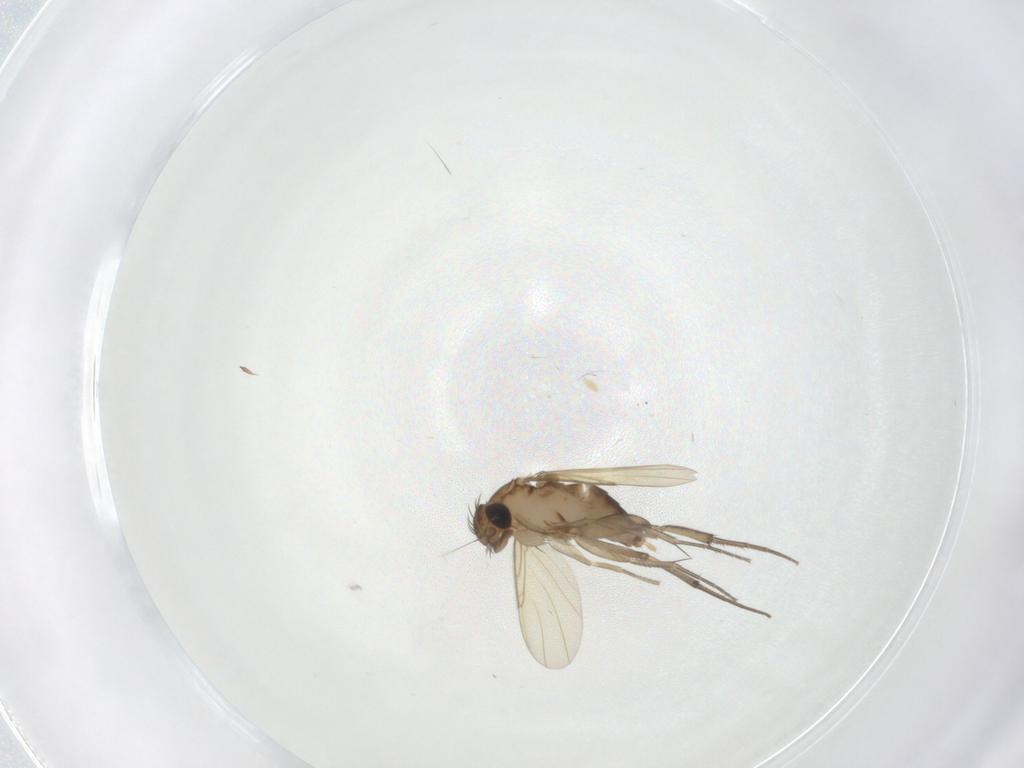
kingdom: Animalia
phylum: Arthropoda
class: Insecta
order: Diptera
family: Phoridae
